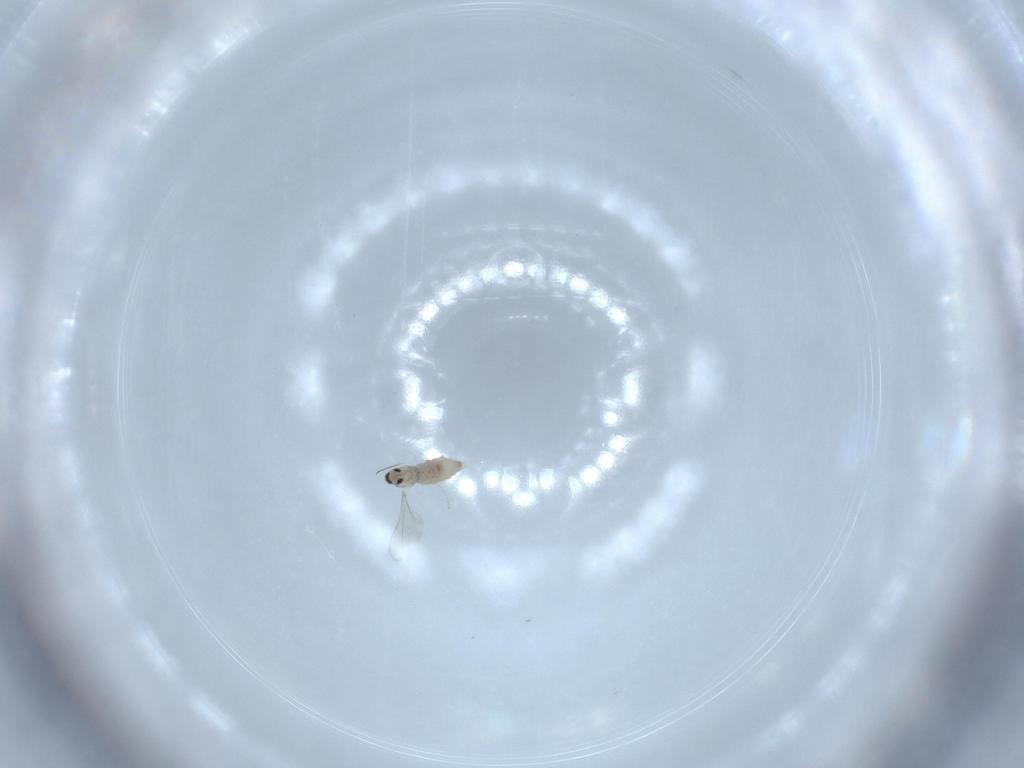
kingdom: Animalia
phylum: Arthropoda
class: Insecta
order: Diptera
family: Cecidomyiidae
